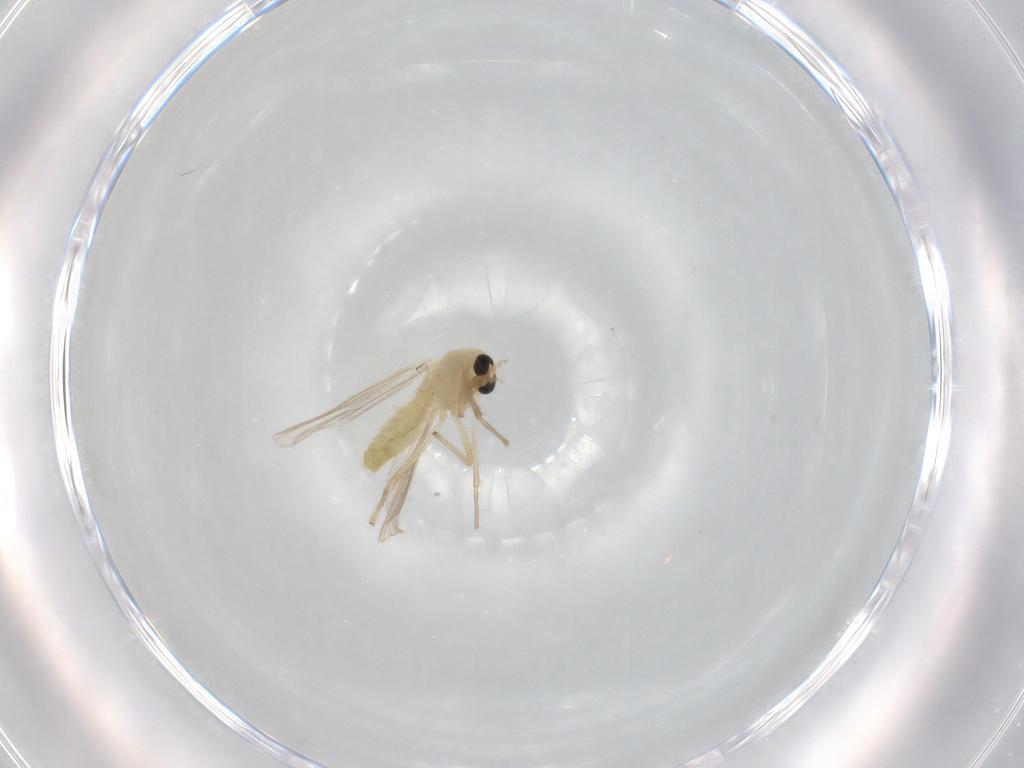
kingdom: Animalia
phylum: Arthropoda
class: Insecta
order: Diptera
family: Chironomidae
